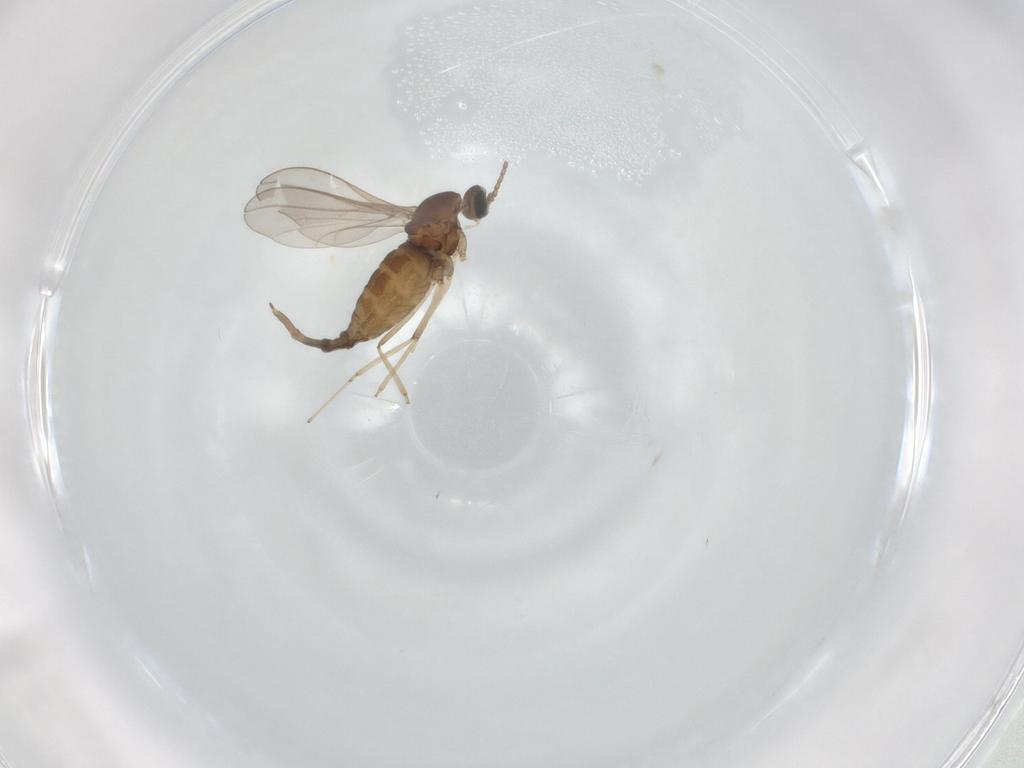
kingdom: Animalia
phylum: Arthropoda
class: Insecta
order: Diptera
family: Cecidomyiidae
